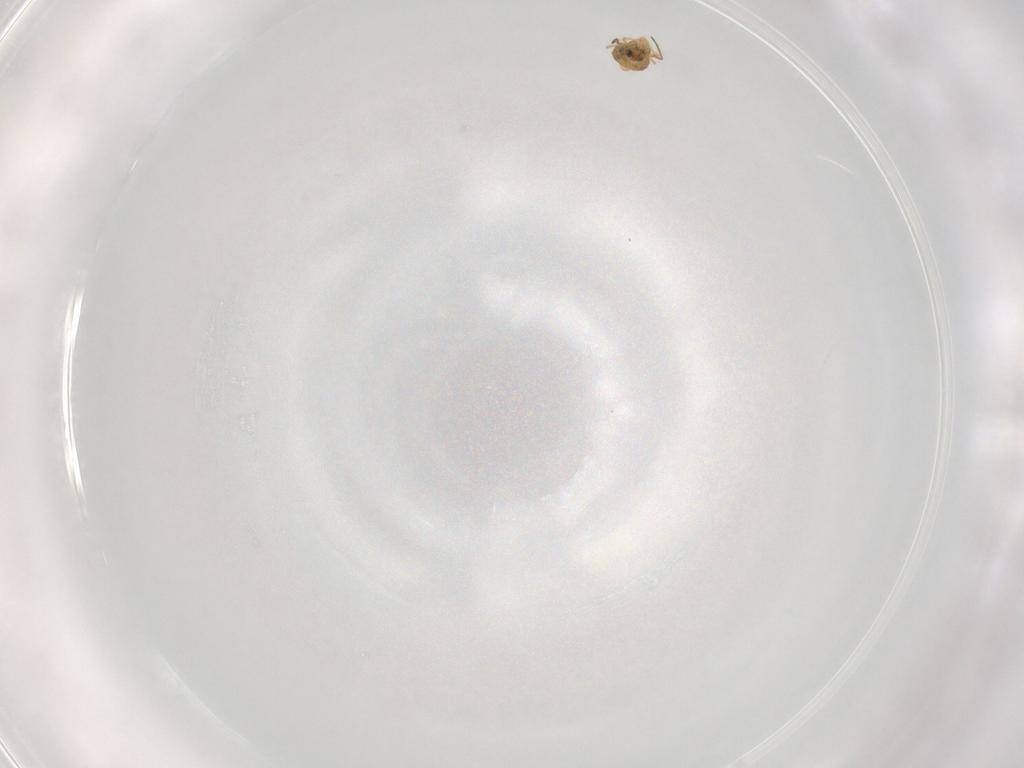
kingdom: Animalia
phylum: Arthropoda
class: Collembola
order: Symphypleona
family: Katiannidae
